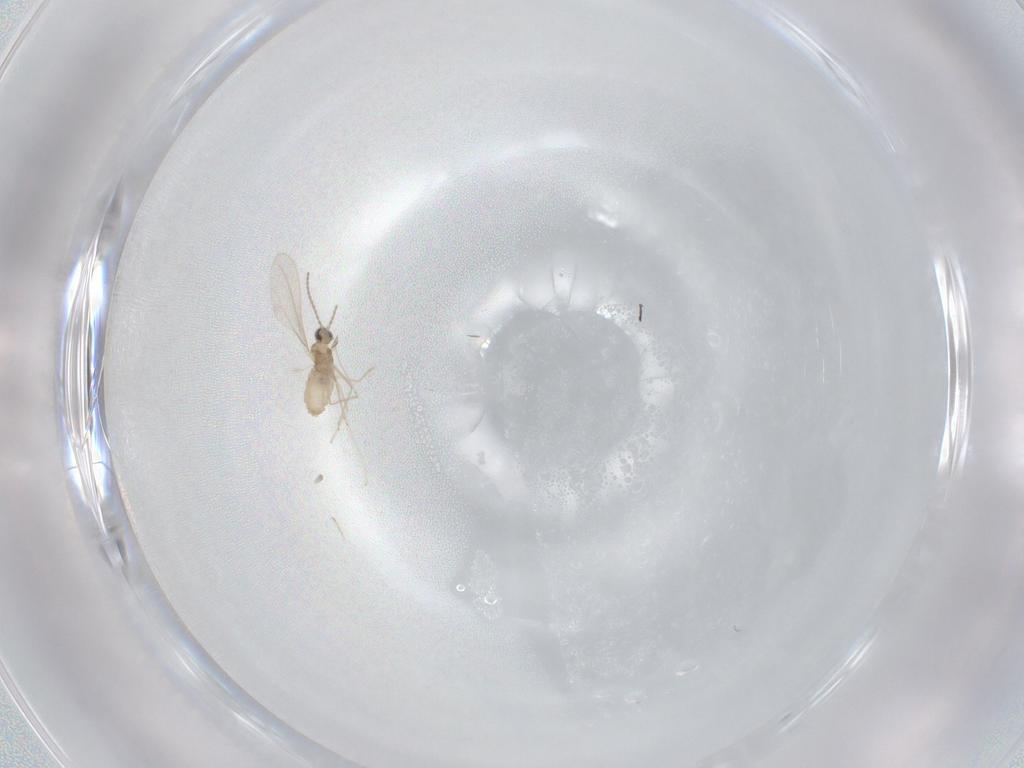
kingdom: Animalia
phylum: Arthropoda
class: Insecta
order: Diptera
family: Cecidomyiidae
